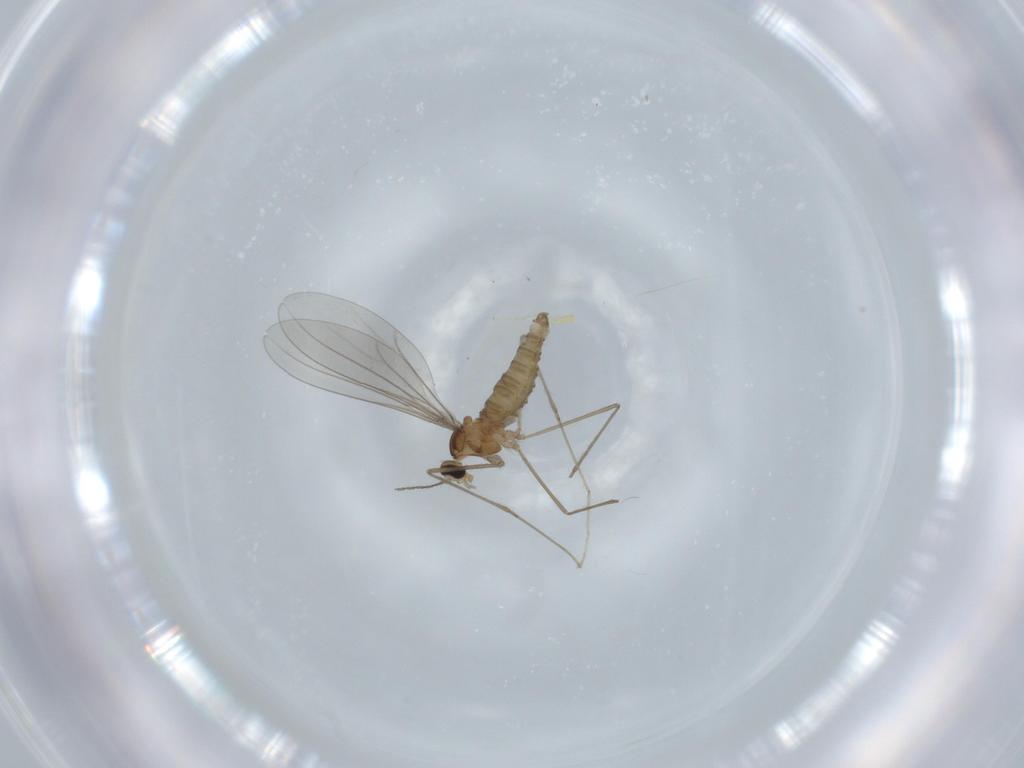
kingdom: Animalia
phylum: Arthropoda
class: Insecta
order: Diptera
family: Cecidomyiidae
